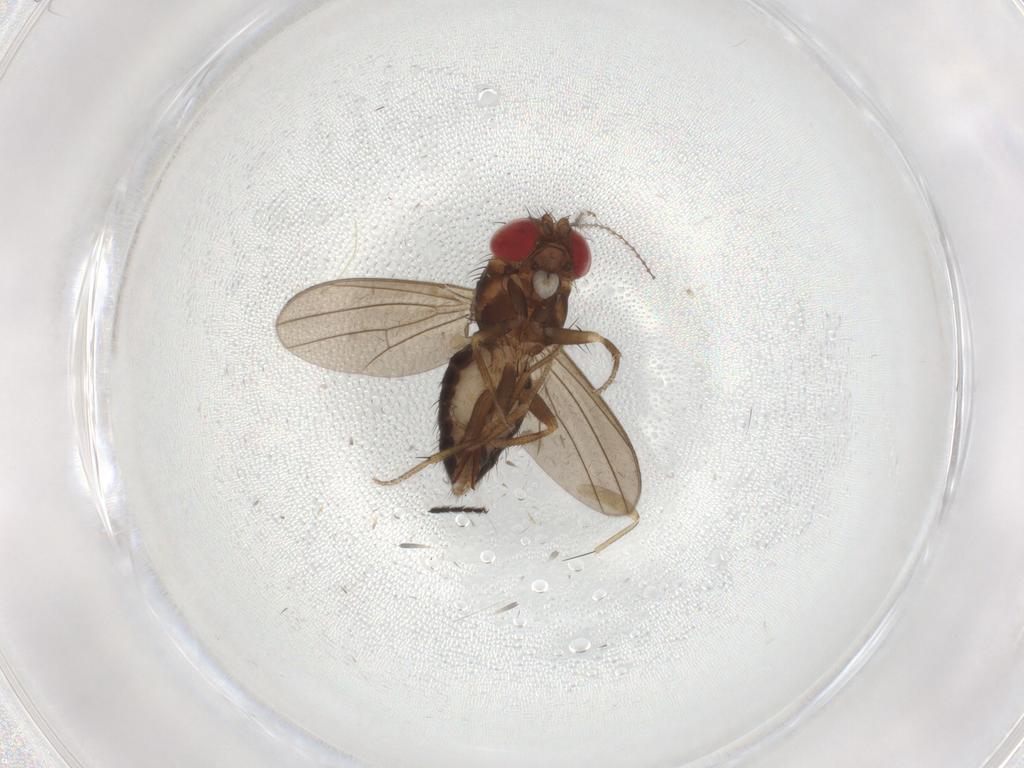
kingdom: Animalia
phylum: Arthropoda
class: Insecta
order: Diptera
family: Drosophilidae
